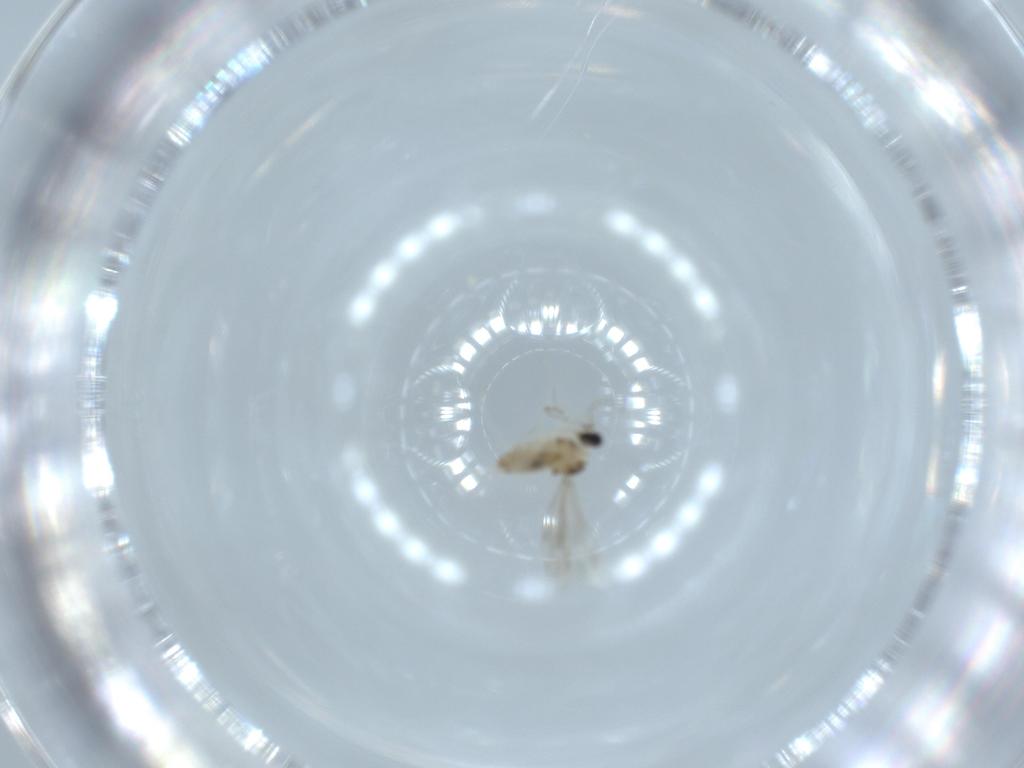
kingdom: Animalia
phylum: Arthropoda
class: Insecta
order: Diptera
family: Cecidomyiidae
